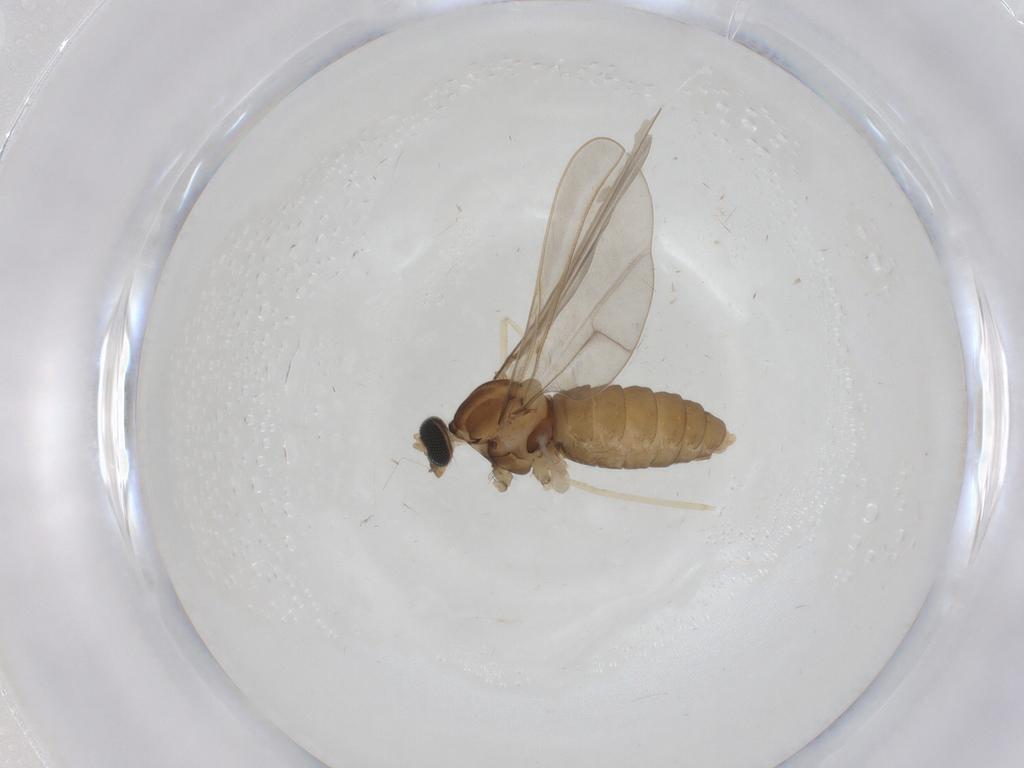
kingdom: Animalia
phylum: Arthropoda
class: Insecta
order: Diptera
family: Cecidomyiidae
